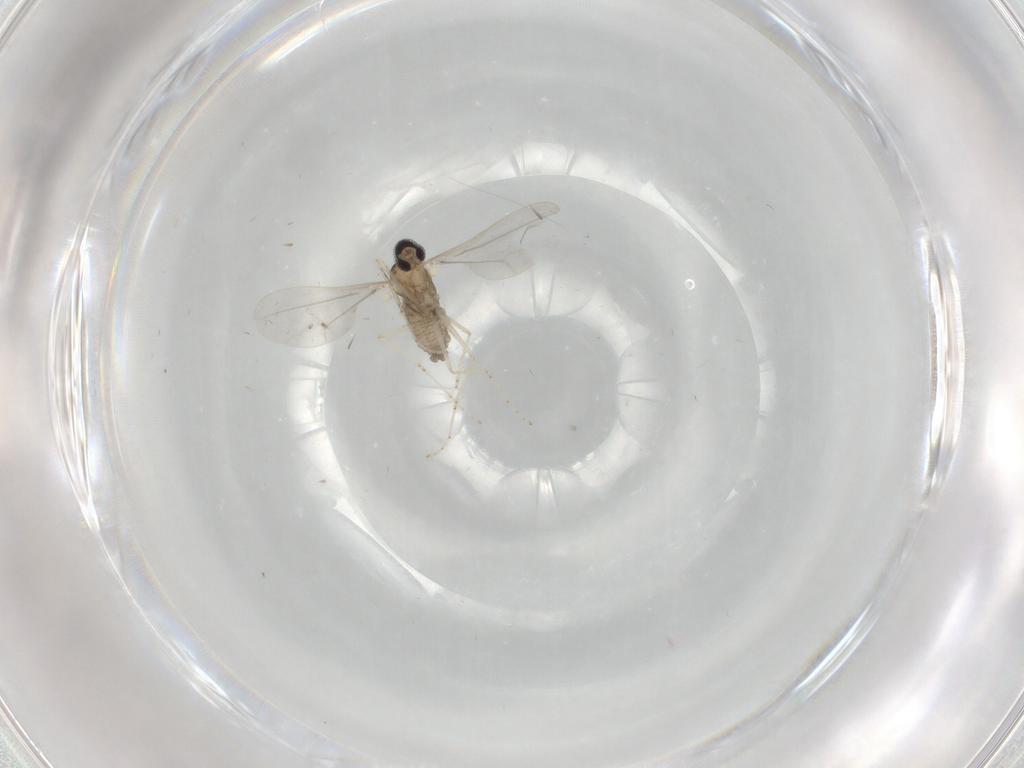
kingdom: Animalia
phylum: Arthropoda
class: Insecta
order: Diptera
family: Cecidomyiidae
